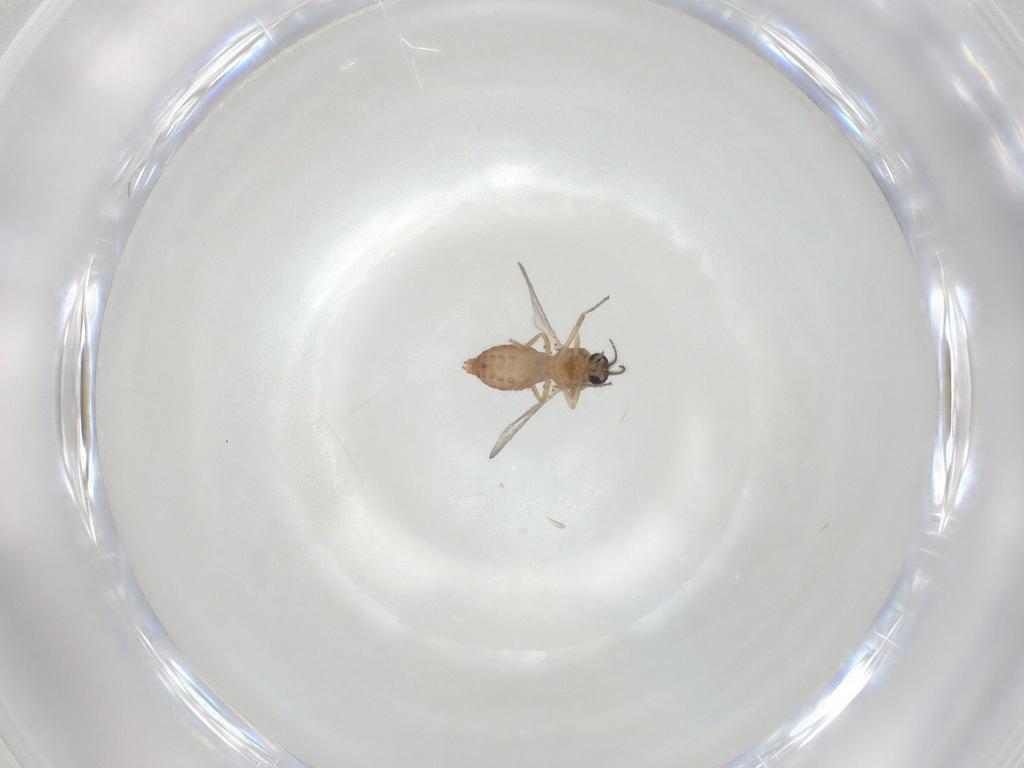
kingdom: Animalia
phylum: Arthropoda
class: Insecta
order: Diptera
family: Ceratopogonidae
